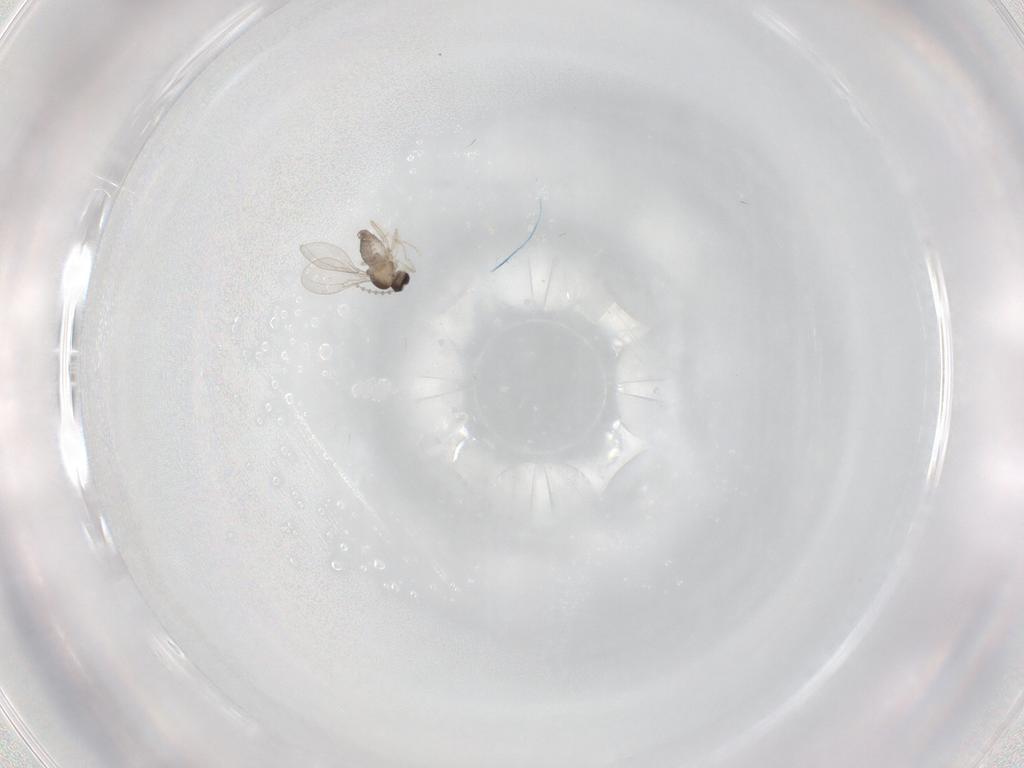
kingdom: Animalia
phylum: Arthropoda
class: Insecta
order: Diptera
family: Cecidomyiidae
